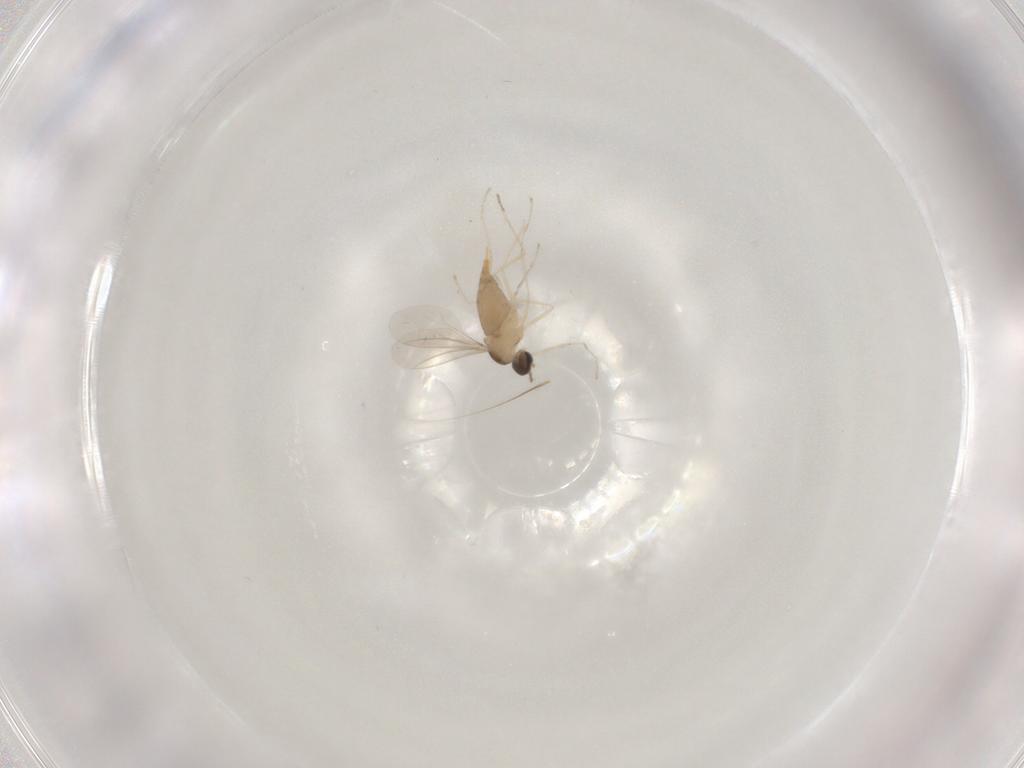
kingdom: Animalia
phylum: Arthropoda
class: Insecta
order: Diptera
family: Cecidomyiidae
